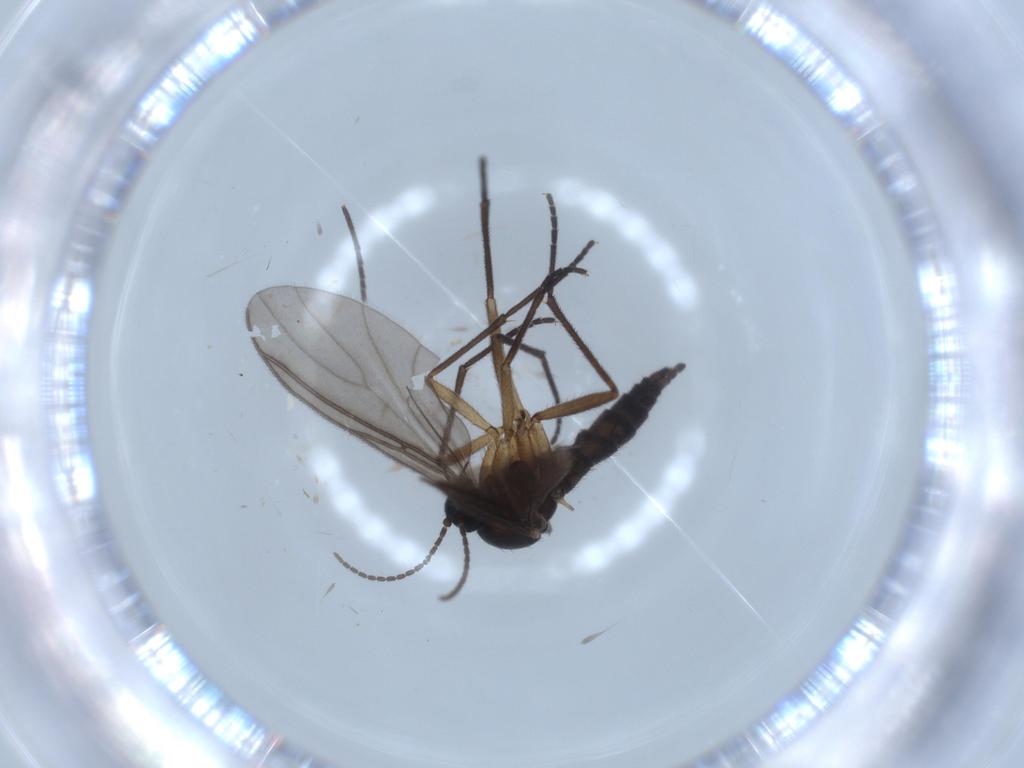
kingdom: Animalia
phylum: Arthropoda
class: Insecta
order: Diptera
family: Sciaridae
